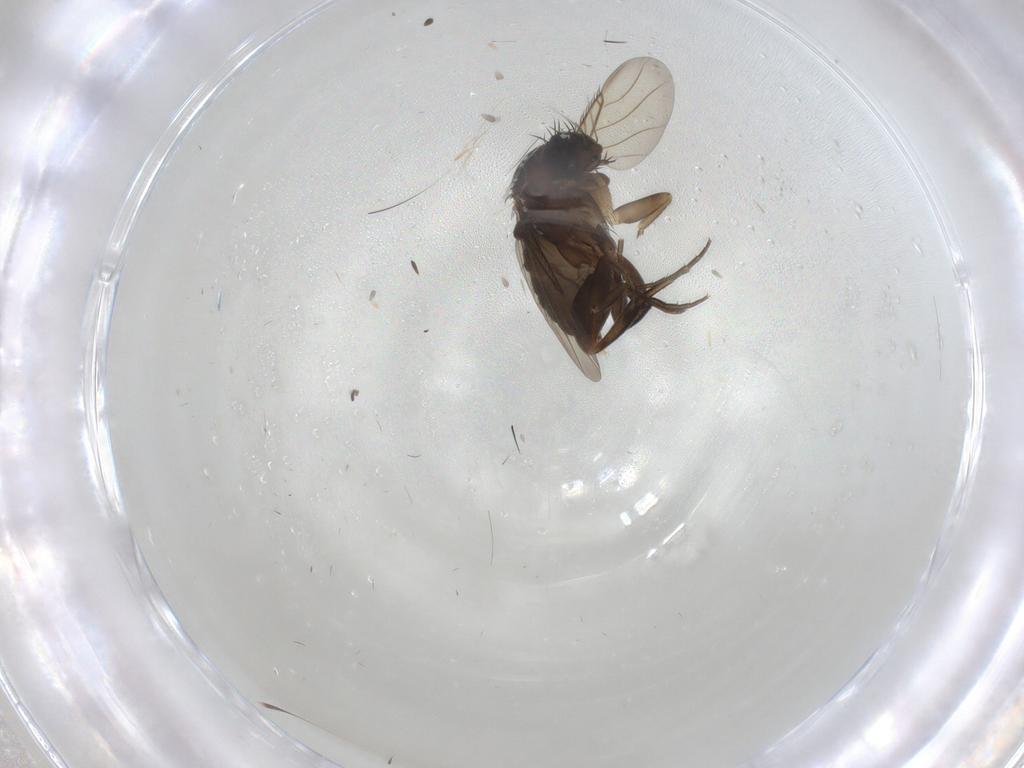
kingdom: Animalia
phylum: Arthropoda
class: Insecta
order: Diptera
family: Phoridae
